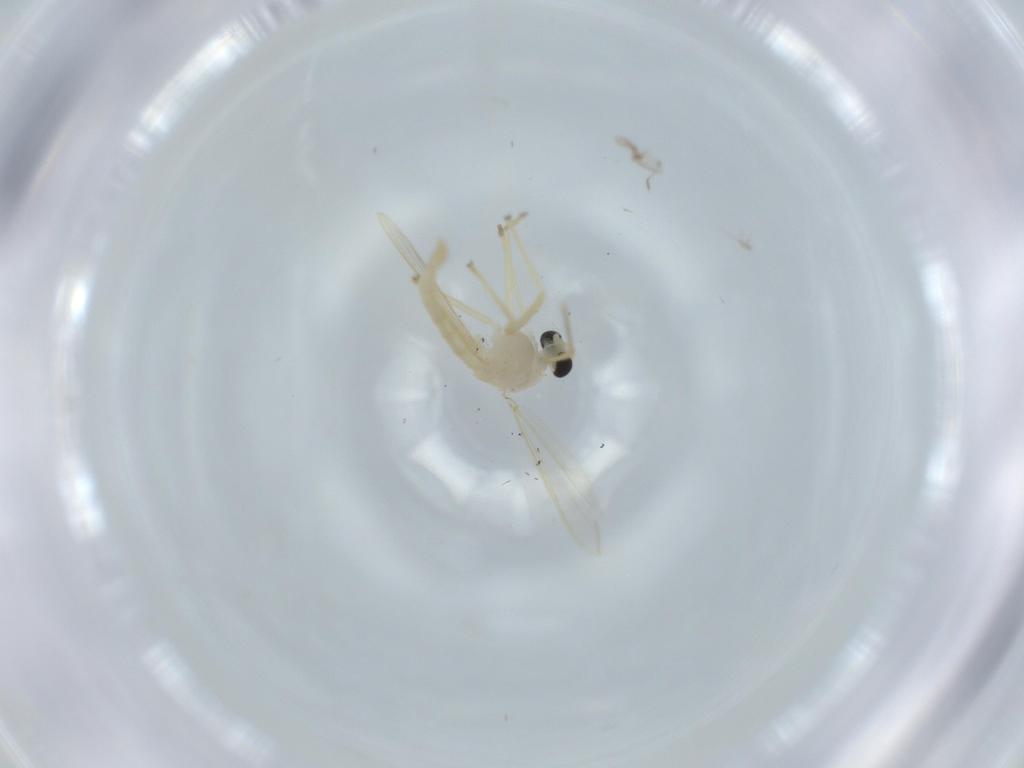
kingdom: Animalia
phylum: Arthropoda
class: Insecta
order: Diptera
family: Chironomidae
